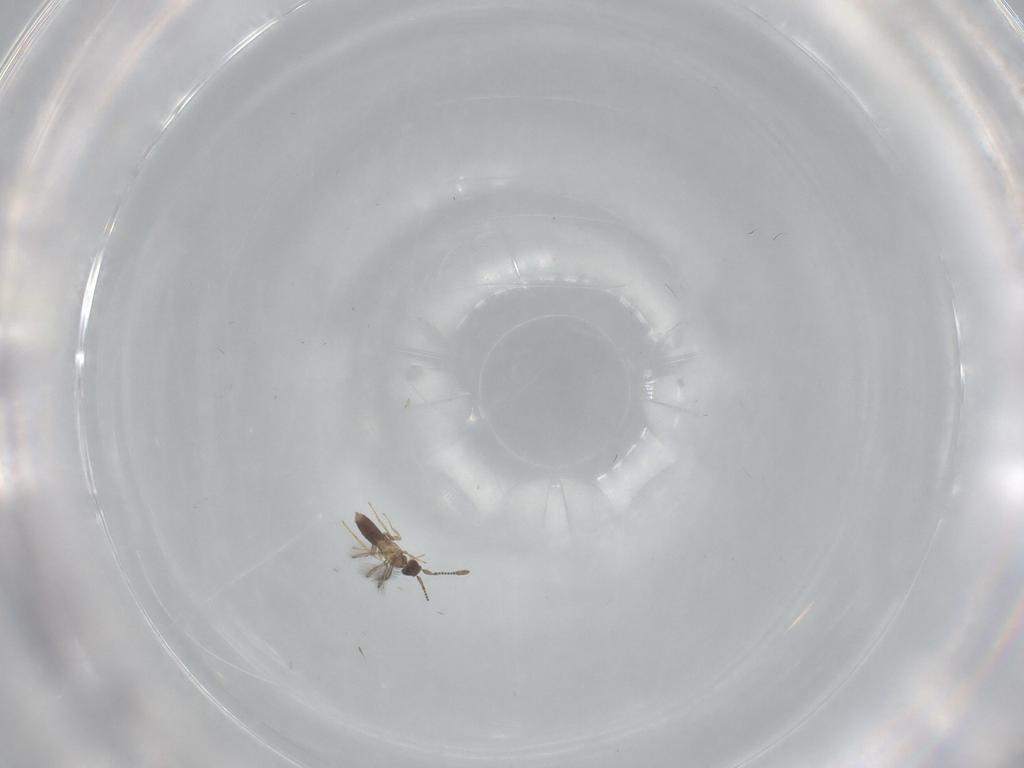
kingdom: Animalia
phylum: Arthropoda
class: Insecta
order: Hymenoptera
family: Mymaridae
